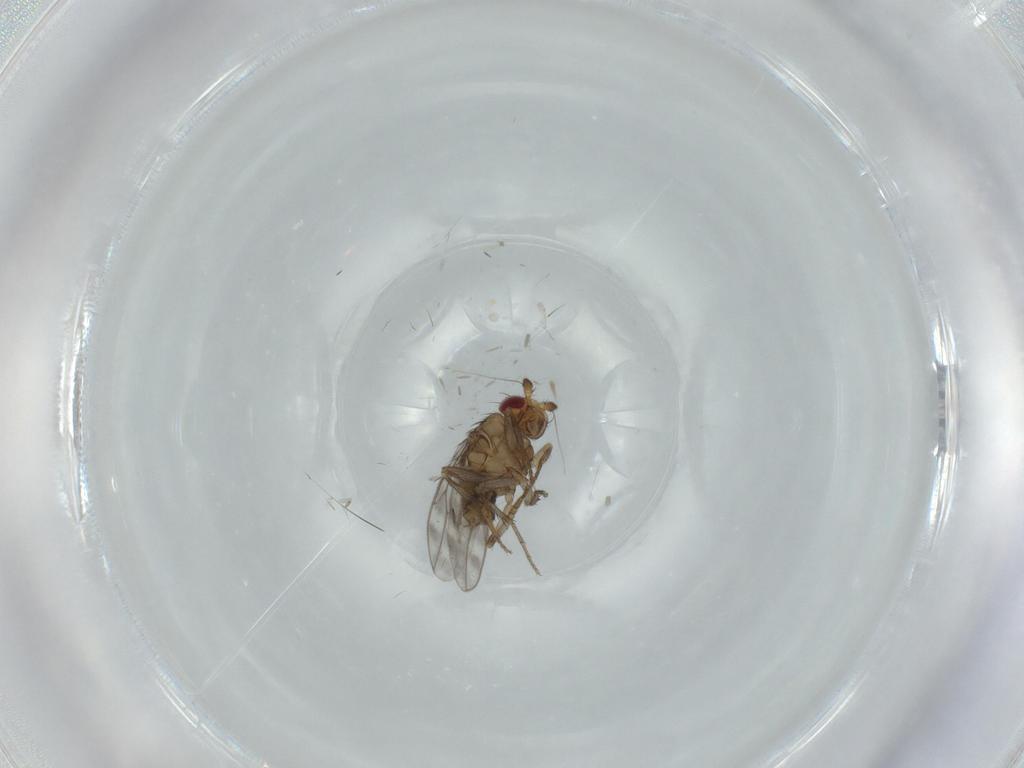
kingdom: Animalia
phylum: Arthropoda
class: Insecta
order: Diptera
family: Sphaeroceridae
